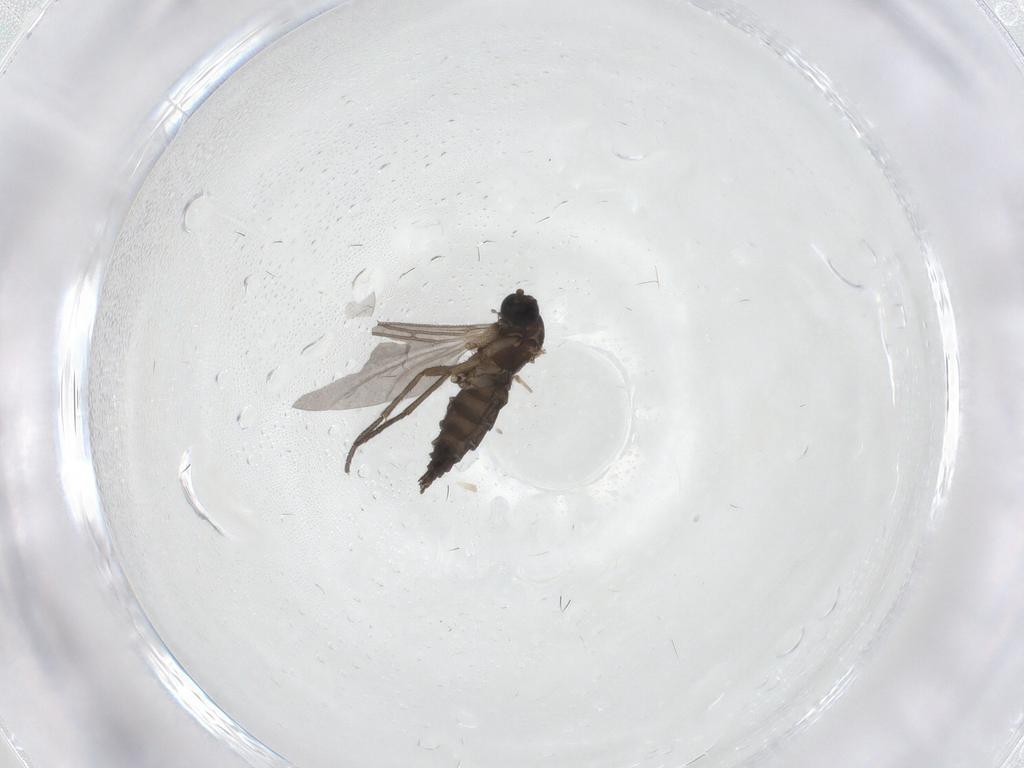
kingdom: Animalia
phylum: Arthropoda
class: Insecta
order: Diptera
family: Sciaridae
